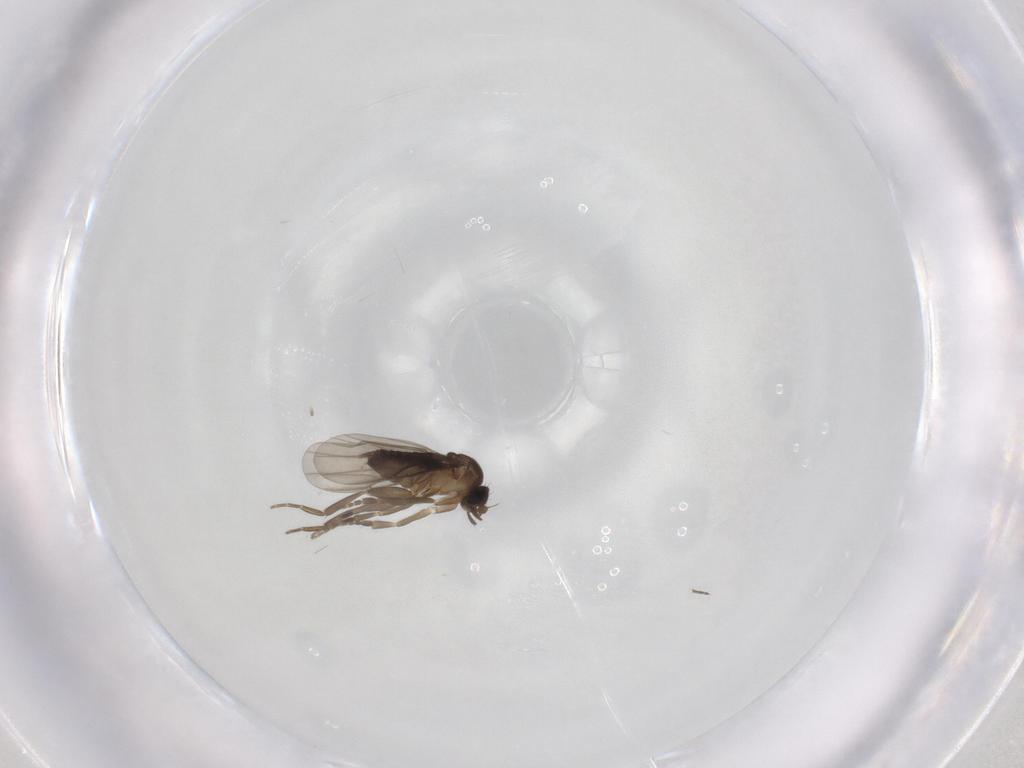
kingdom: Animalia
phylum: Arthropoda
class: Insecta
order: Diptera
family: Phoridae
